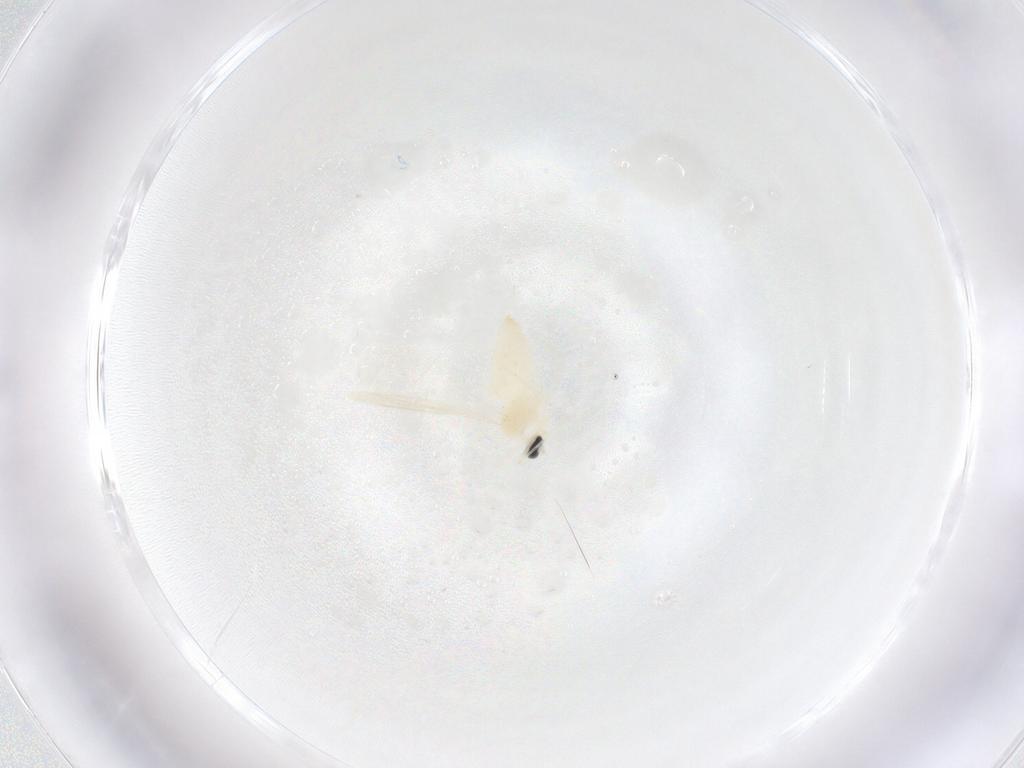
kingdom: Animalia
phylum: Arthropoda
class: Insecta
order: Diptera
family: Cecidomyiidae
